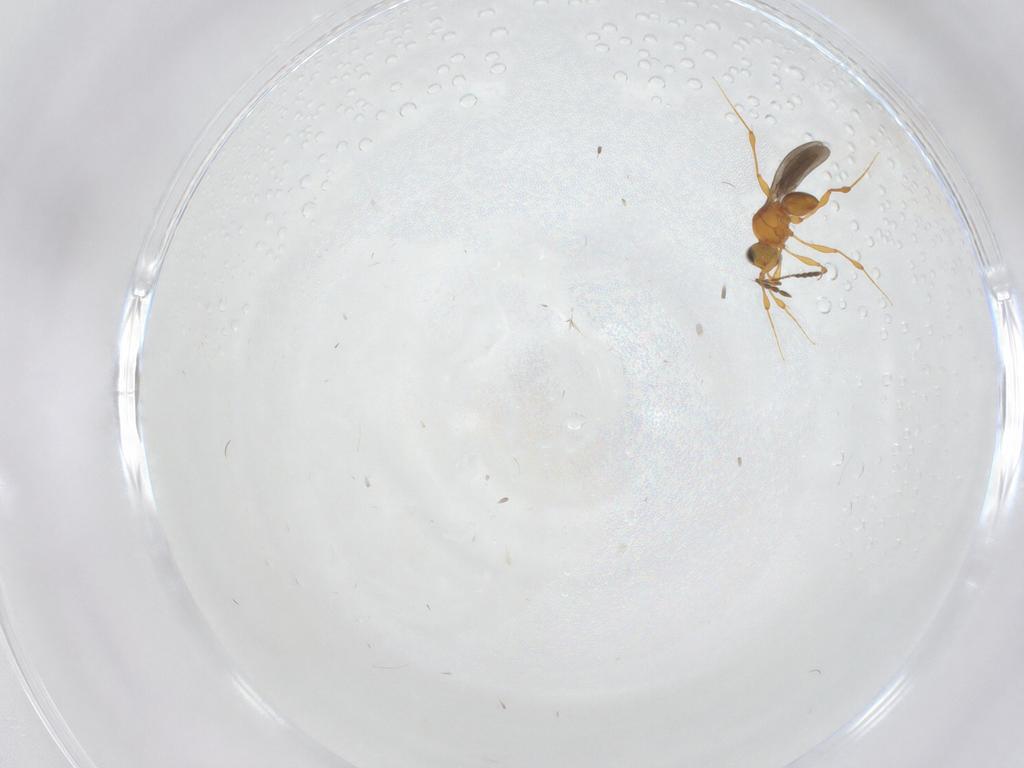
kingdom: Animalia
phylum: Arthropoda
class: Insecta
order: Hymenoptera
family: Platygastridae
